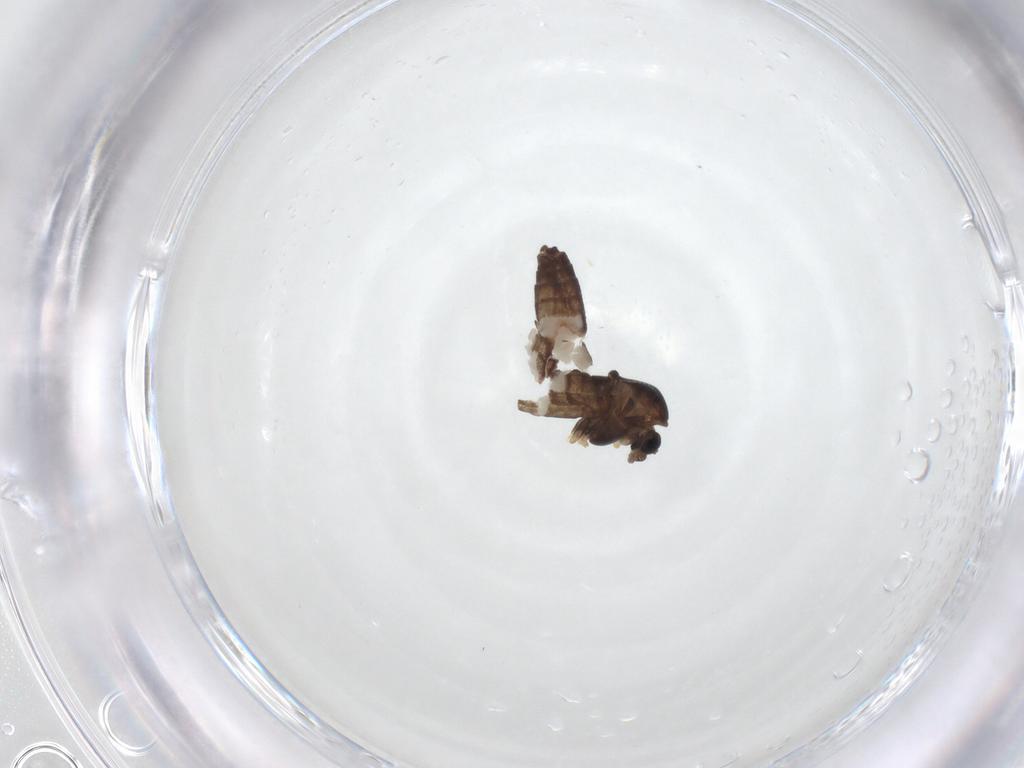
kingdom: Animalia
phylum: Arthropoda
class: Insecta
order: Diptera
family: Chironomidae
